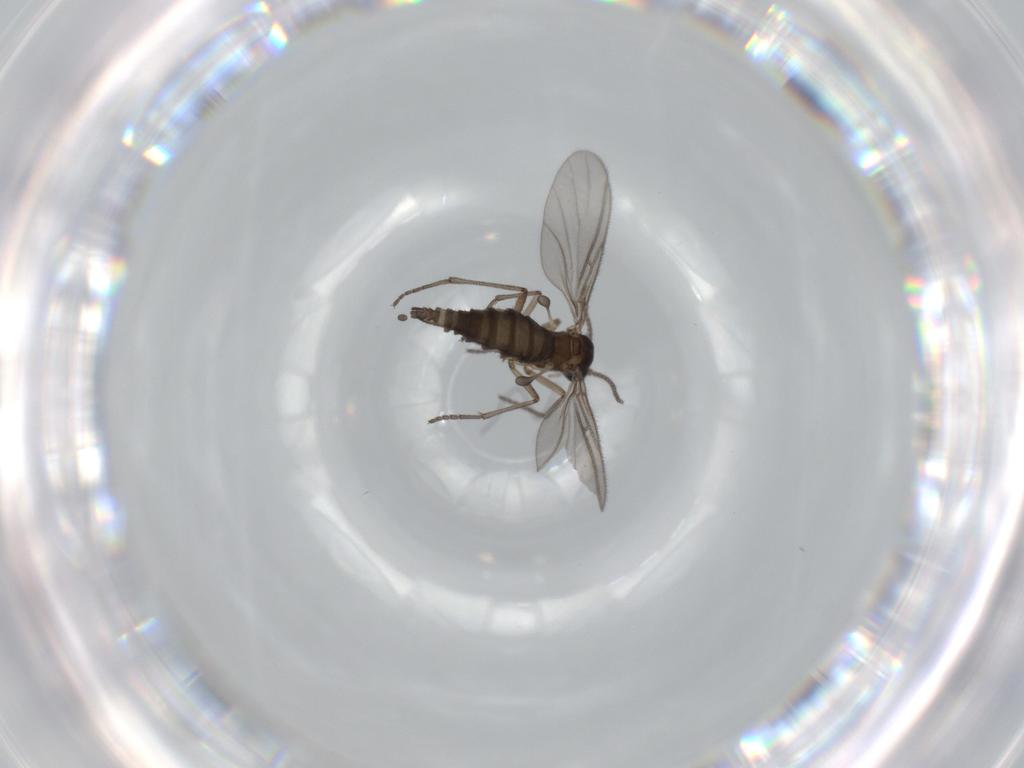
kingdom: Animalia
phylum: Arthropoda
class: Insecta
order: Diptera
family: Sciaridae
